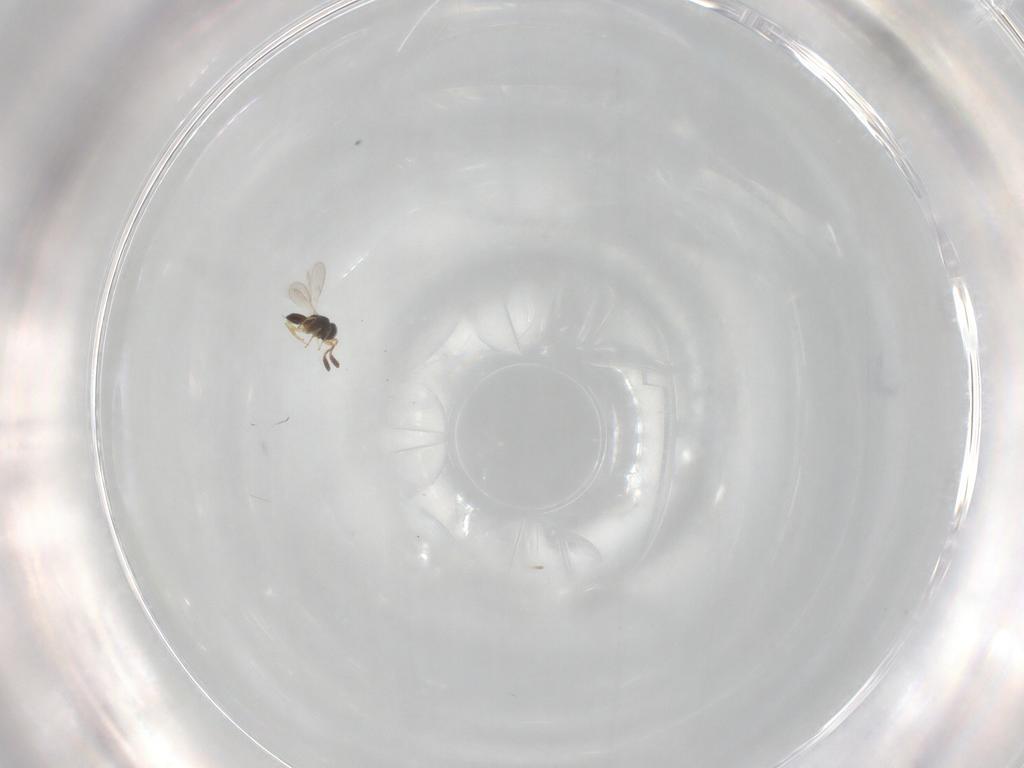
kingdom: Animalia
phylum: Arthropoda
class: Insecta
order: Hymenoptera
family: Scelionidae
